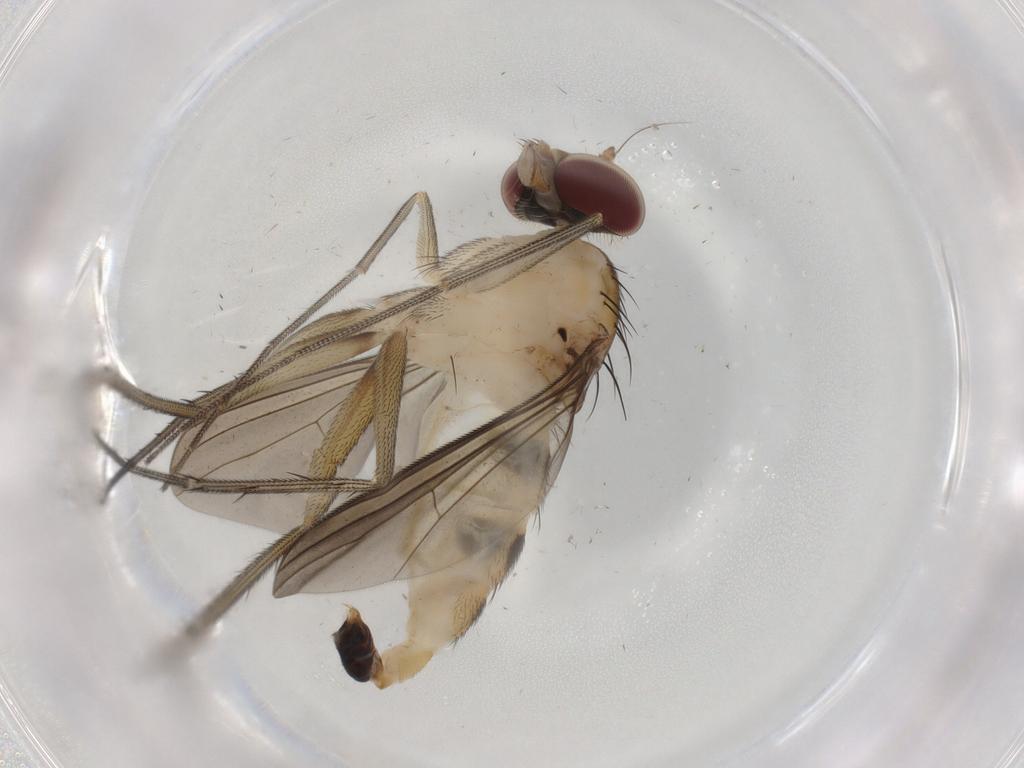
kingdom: Animalia
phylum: Arthropoda
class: Insecta
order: Diptera
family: Dolichopodidae
